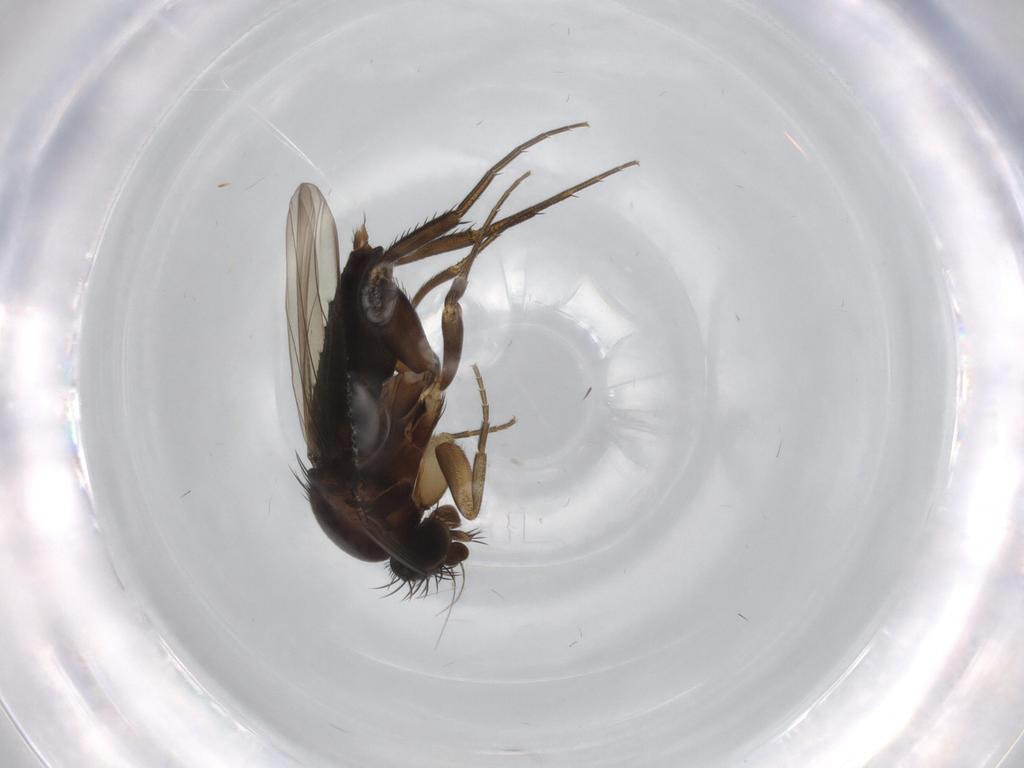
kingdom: Animalia
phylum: Arthropoda
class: Insecta
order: Diptera
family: Phoridae
